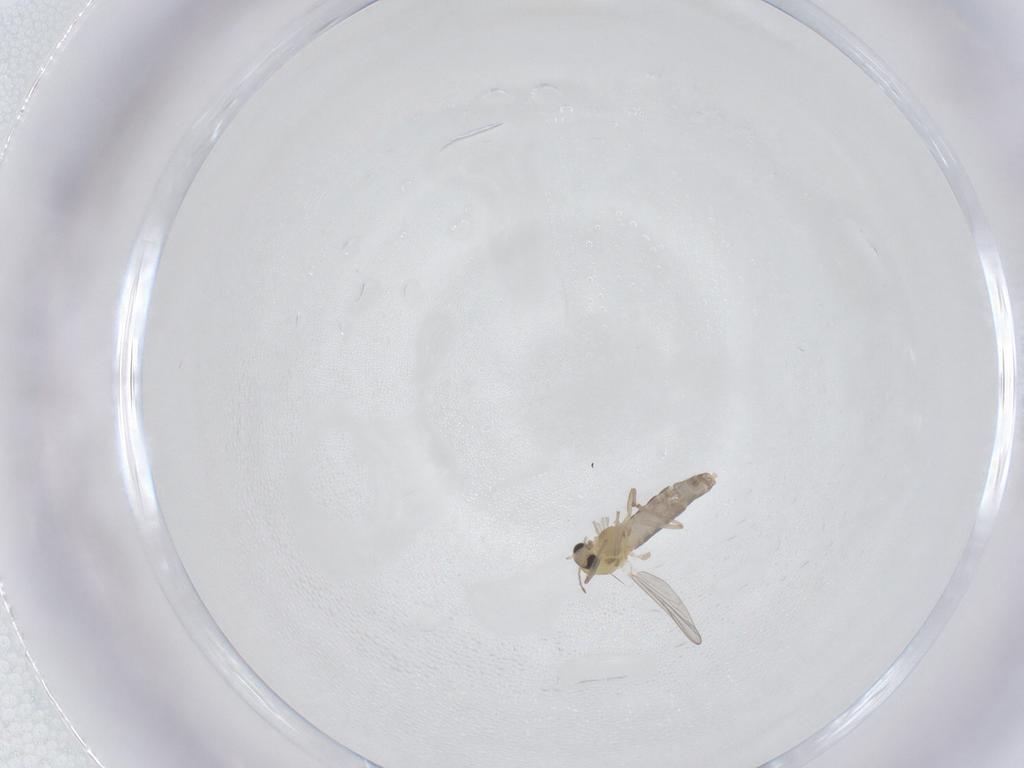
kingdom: Animalia
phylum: Arthropoda
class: Insecta
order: Diptera
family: Chironomidae
